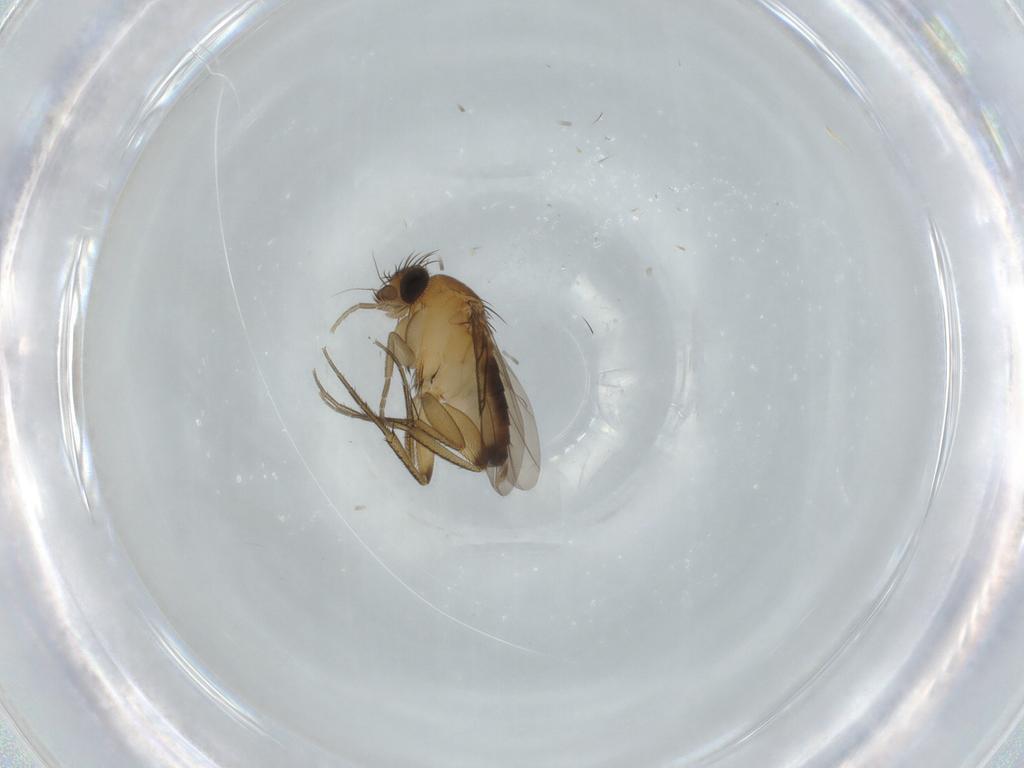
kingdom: Animalia
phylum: Arthropoda
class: Insecta
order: Diptera
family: Phoridae
